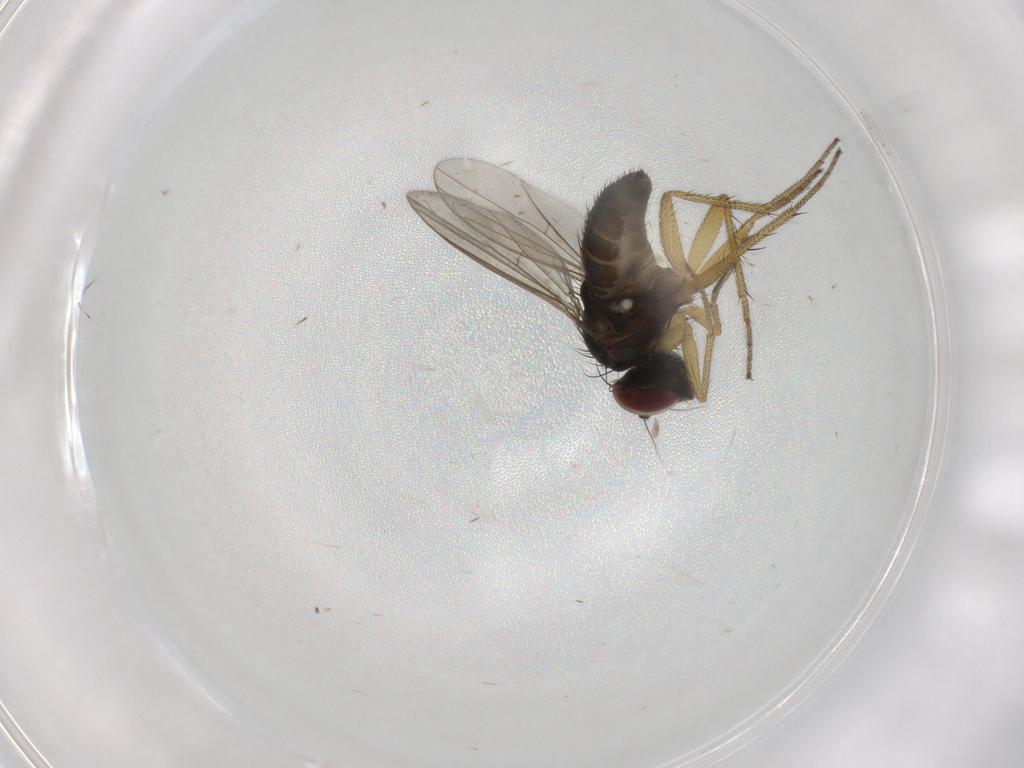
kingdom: Animalia
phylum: Arthropoda
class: Insecta
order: Diptera
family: Chironomidae
